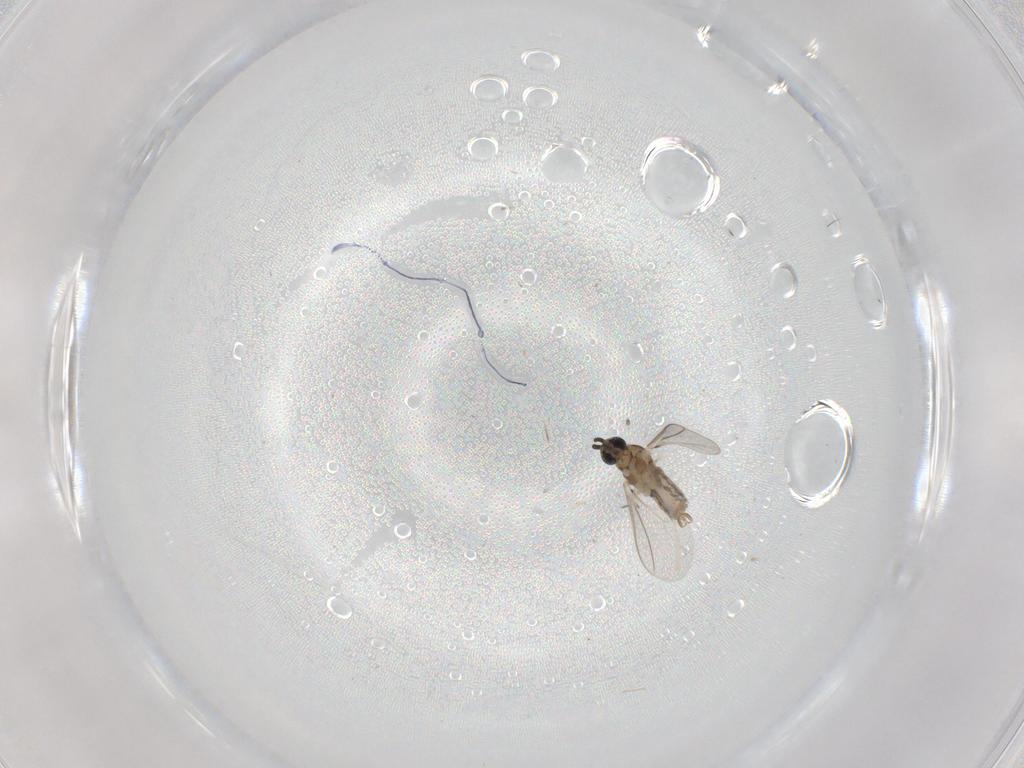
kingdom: Animalia
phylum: Arthropoda
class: Insecta
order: Diptera
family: Cecidomyiidae
